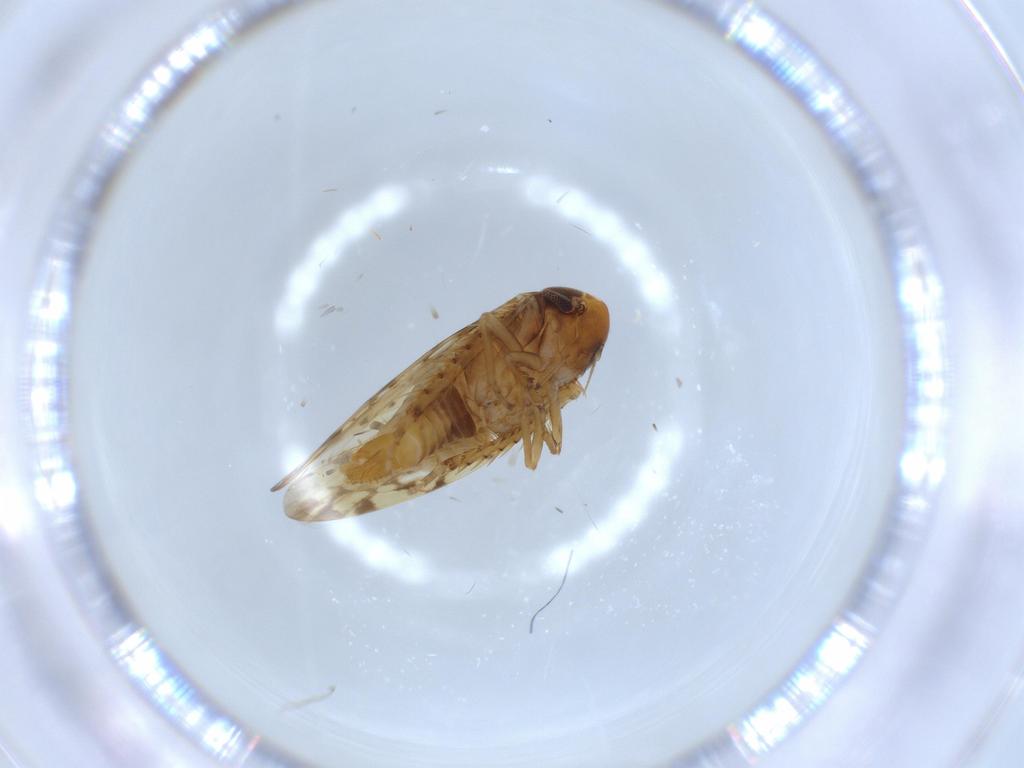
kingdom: Animalia
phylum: Arthropoda
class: Insecta
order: Hemiptera
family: Cicadellidae
